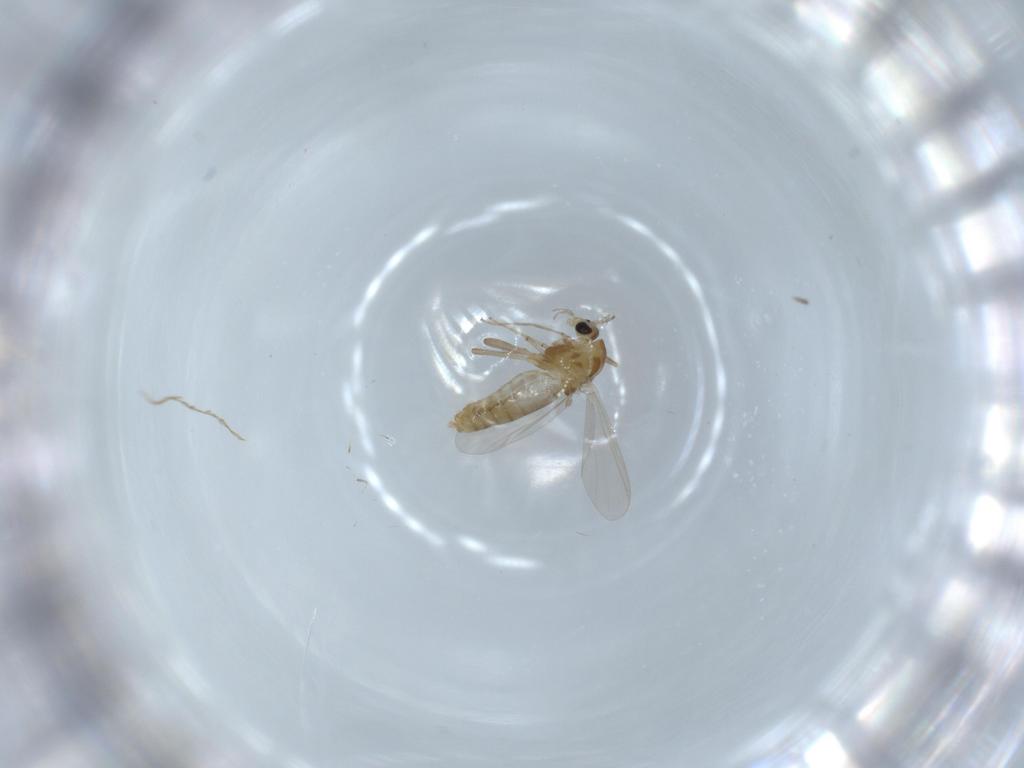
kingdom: Animalia
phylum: Arthropoda
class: Insecta
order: Diptera
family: Chironomidae
